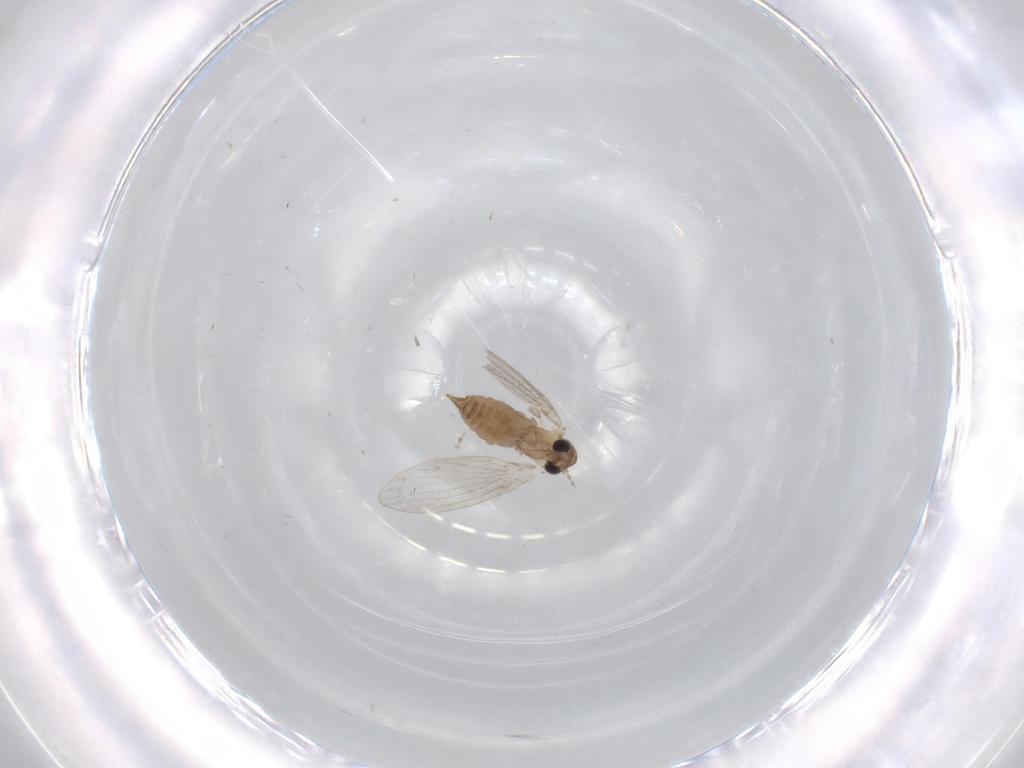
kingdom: Animalia
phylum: Arthropoda
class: Insecta
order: Diptera
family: Psychodidae
